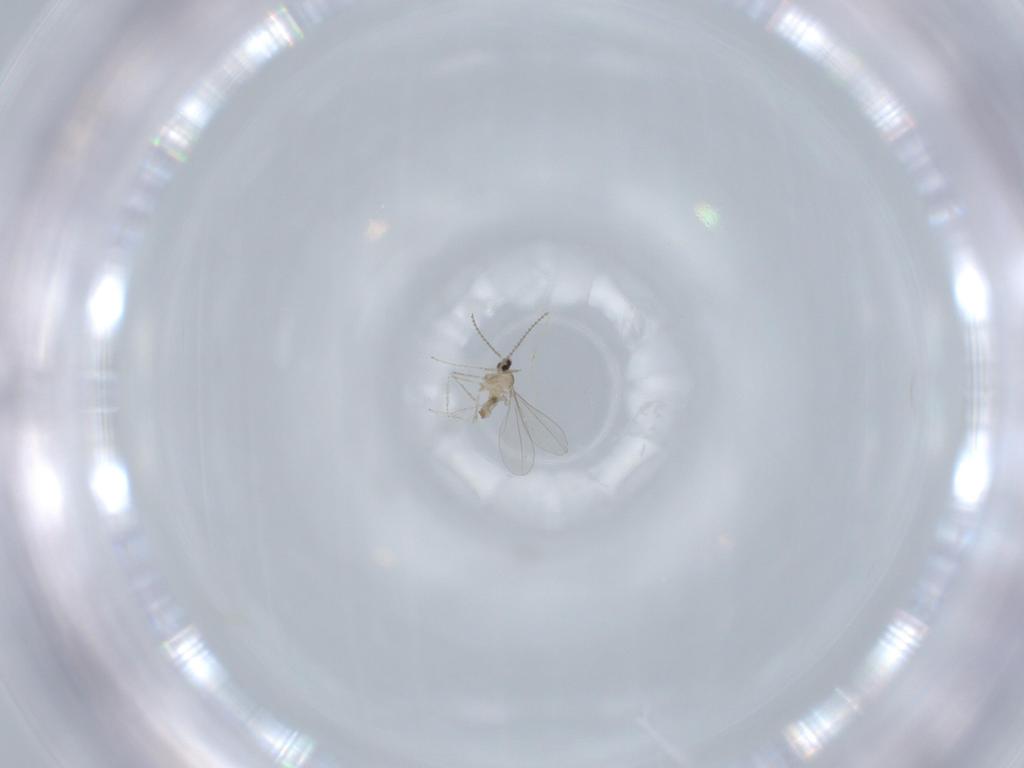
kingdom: Animalia
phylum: Arthropoda
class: Insecta
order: Diptera
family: Cecidomyiidae
